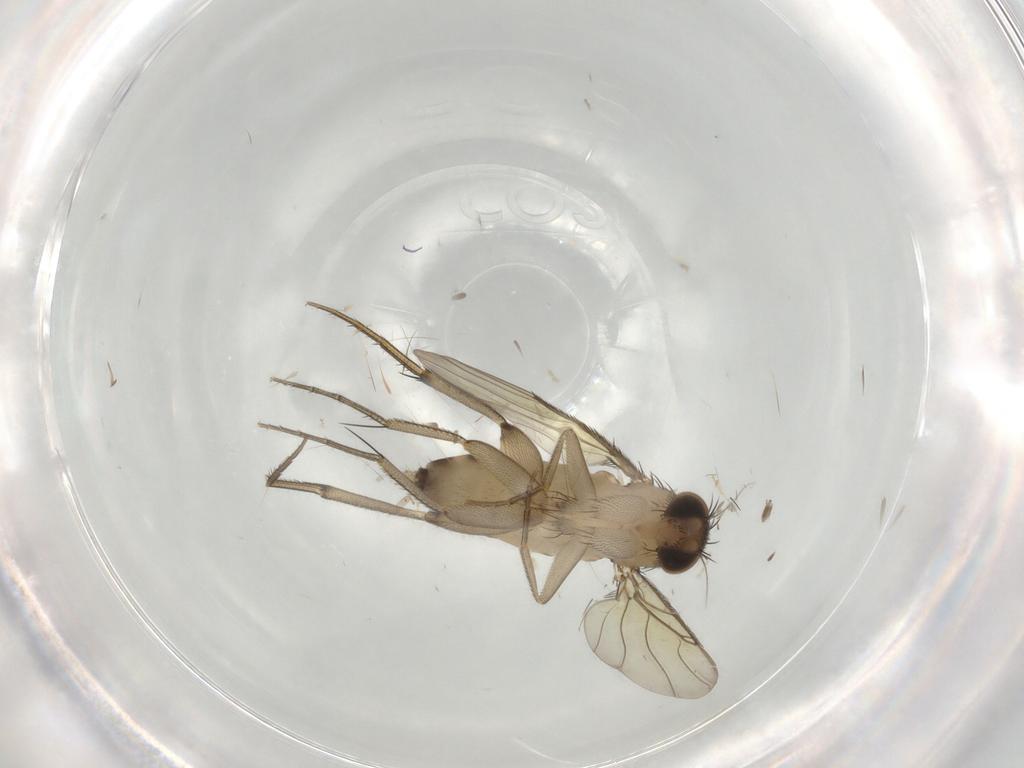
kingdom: Animalia
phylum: Arthropoda
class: Insecta
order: Diptera
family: Phoridae
